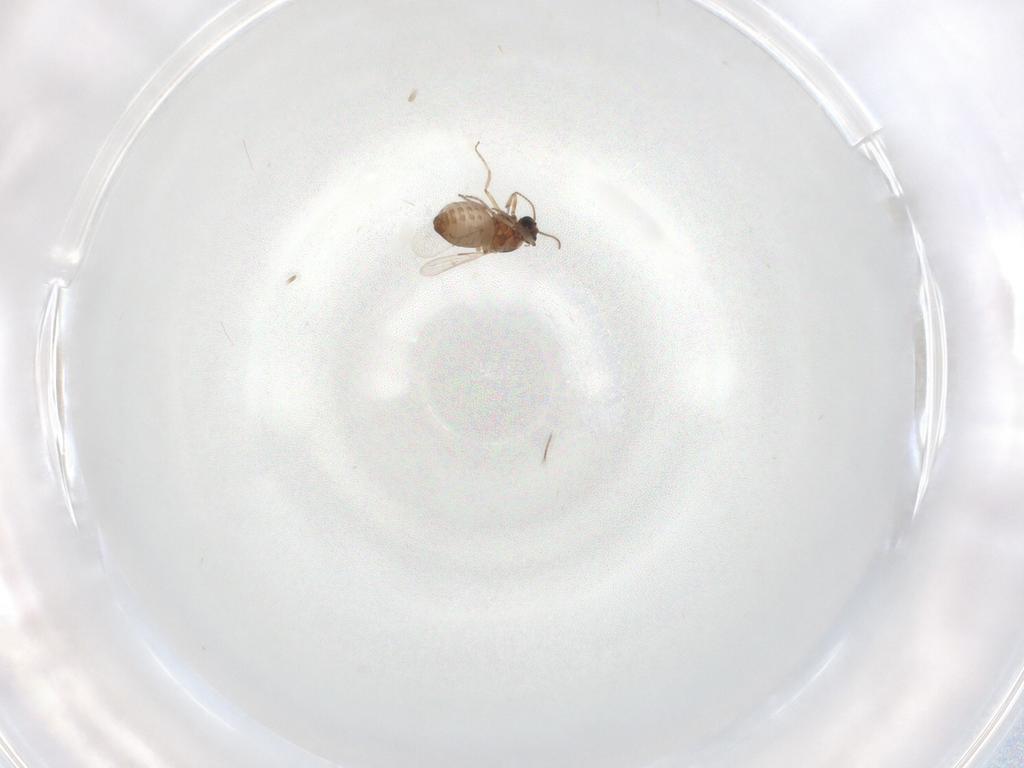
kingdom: Animalia
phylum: Arthropoda
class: Insecta
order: Diptera
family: Ceratopogonidae
